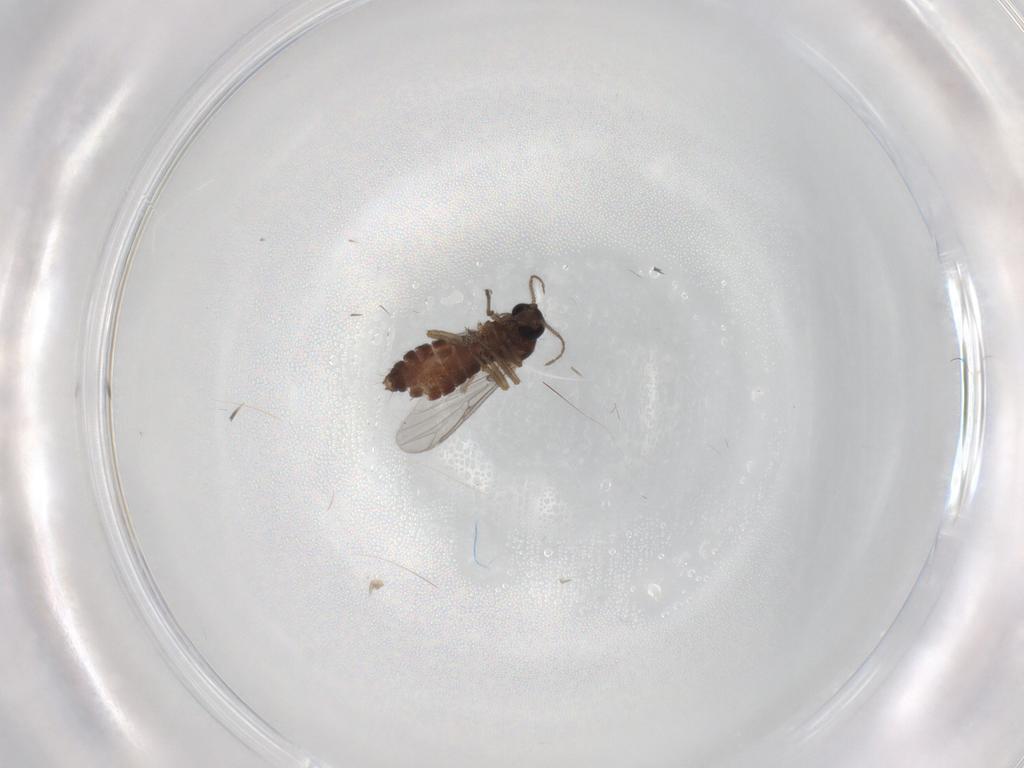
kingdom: Animalia
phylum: Arthropoda
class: Insecta
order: Diptera
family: Ceratopogonidae
